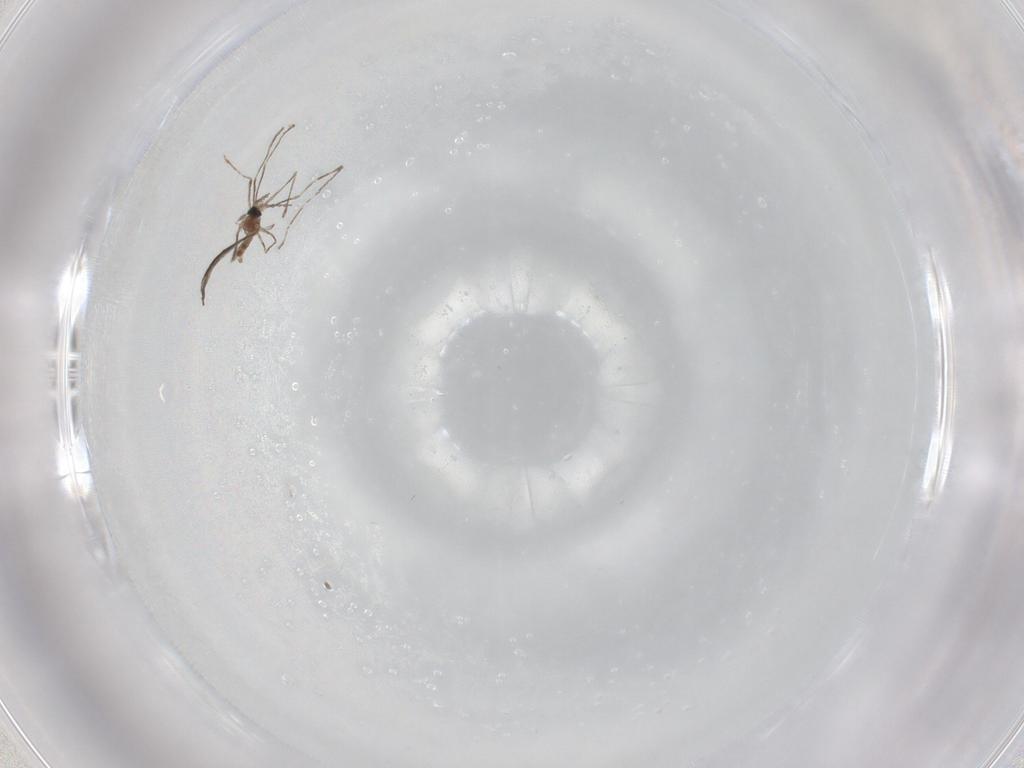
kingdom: Animalia
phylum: Arthropoda
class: Insecta
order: Diptera
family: Cecidomyiidae
